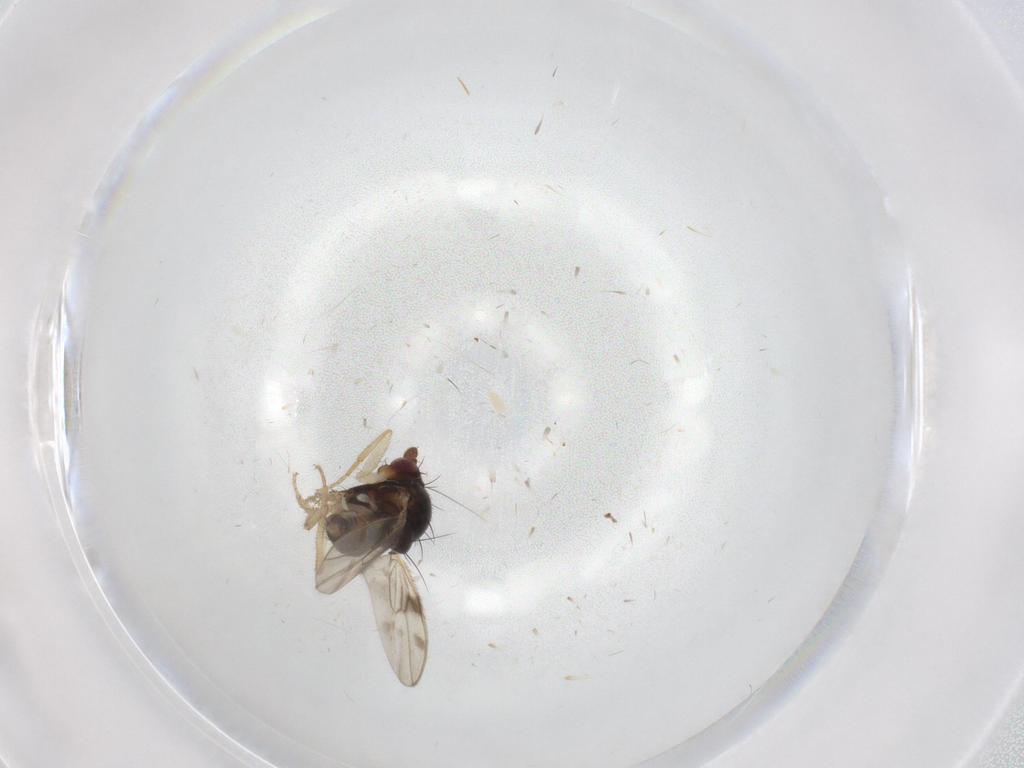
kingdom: Animalia
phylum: Arthropoda
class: Insecta
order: Diptera
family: Sphaeroceridae
